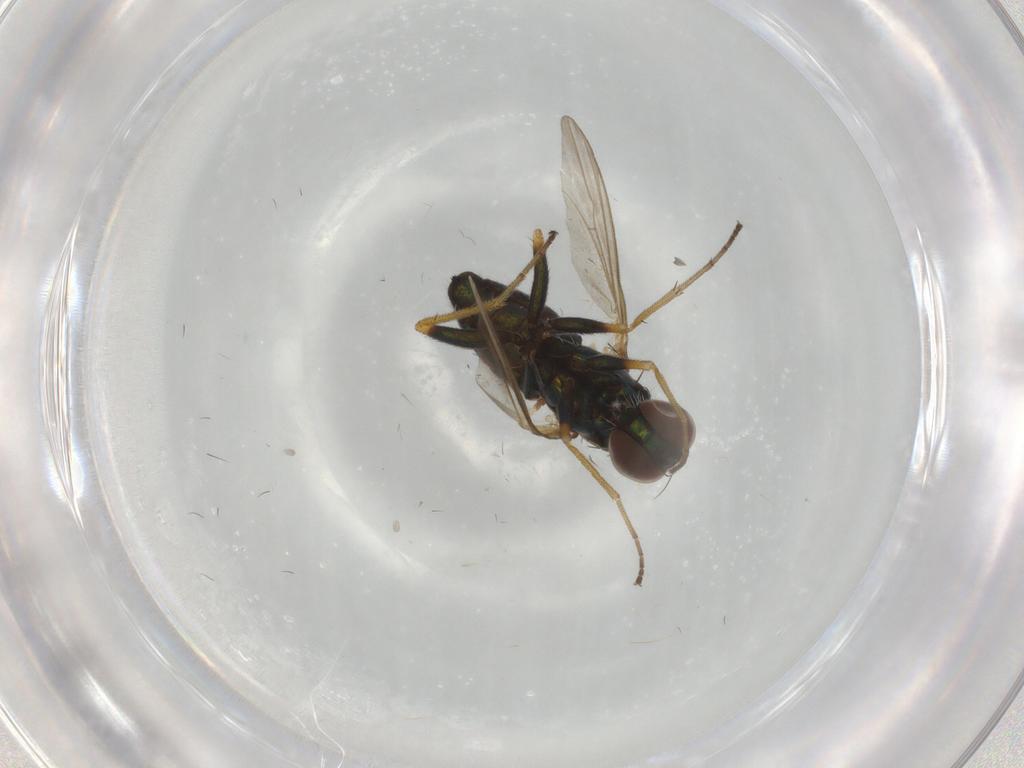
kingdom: Animalia
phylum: Arthropoda
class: Insecta
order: Diptera
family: Dolichopodidae
